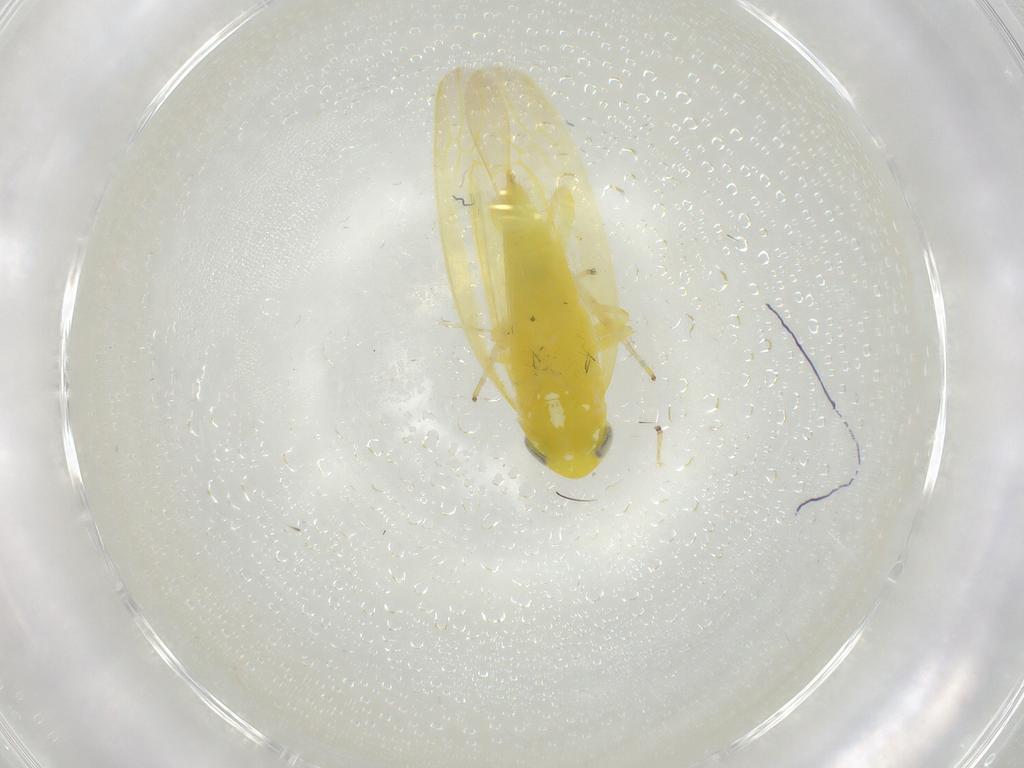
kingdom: Animalia
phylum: Arthropoda
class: Insecta
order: Hemiptera
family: Cicadellidae
